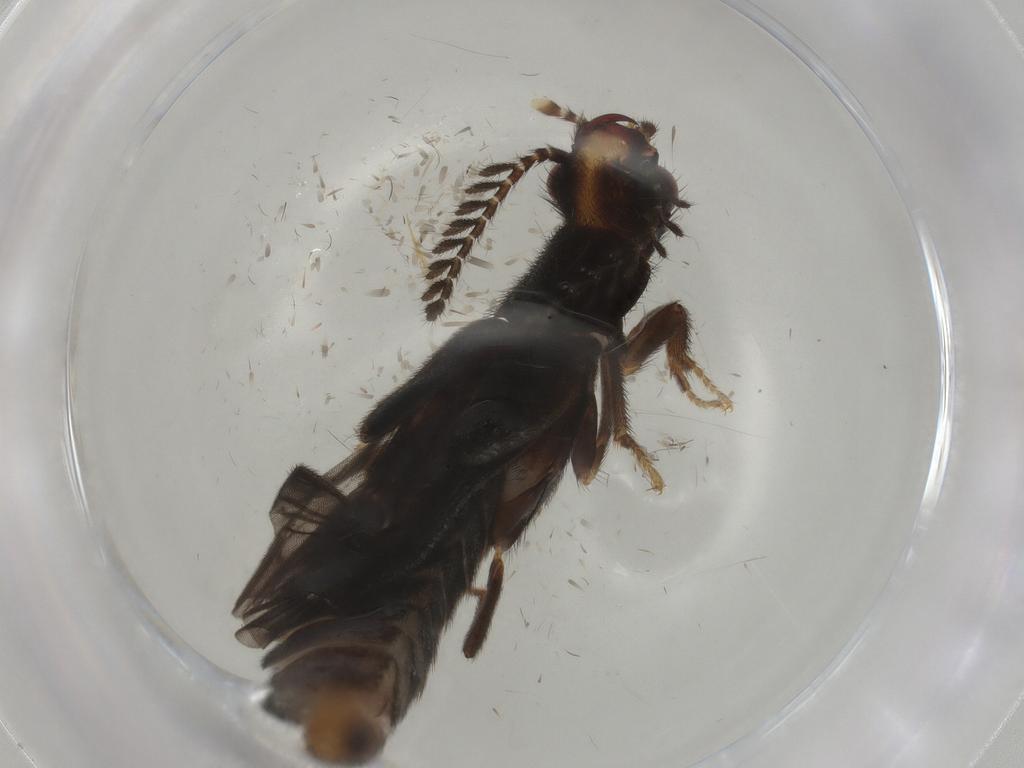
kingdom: Animalia
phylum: Arthropoda
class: Insecta
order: Coleoptera
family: Phengodidae
